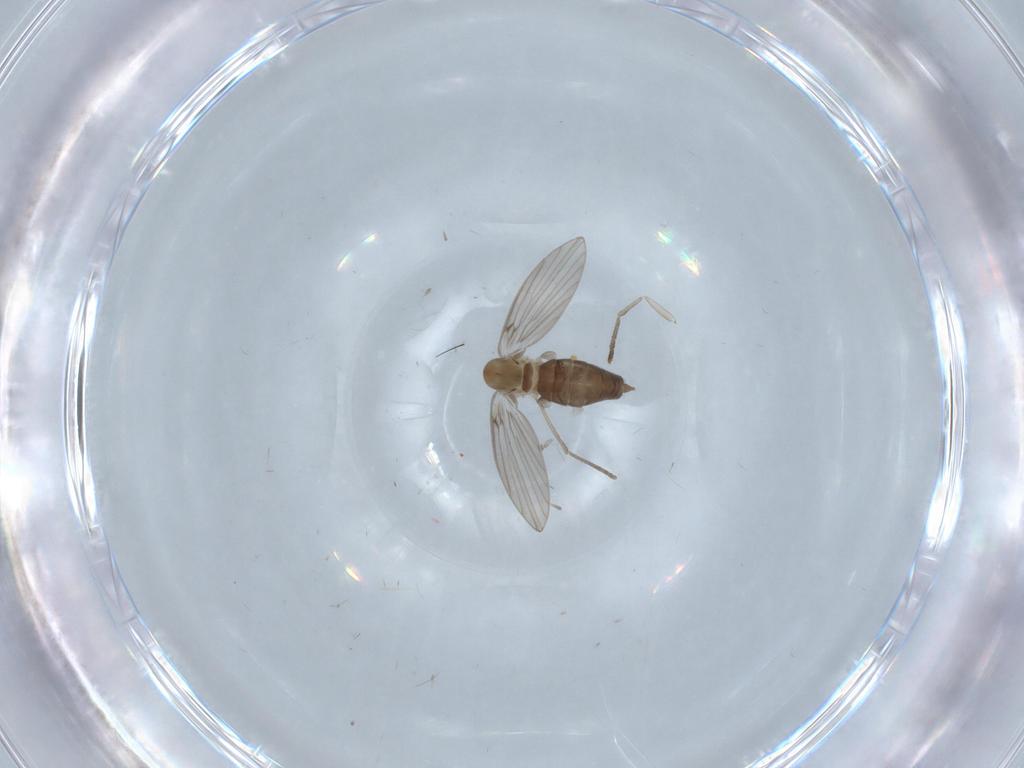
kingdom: Animalia
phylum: Arthropoda
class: Insecta
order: Diptera
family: Psychodidae
